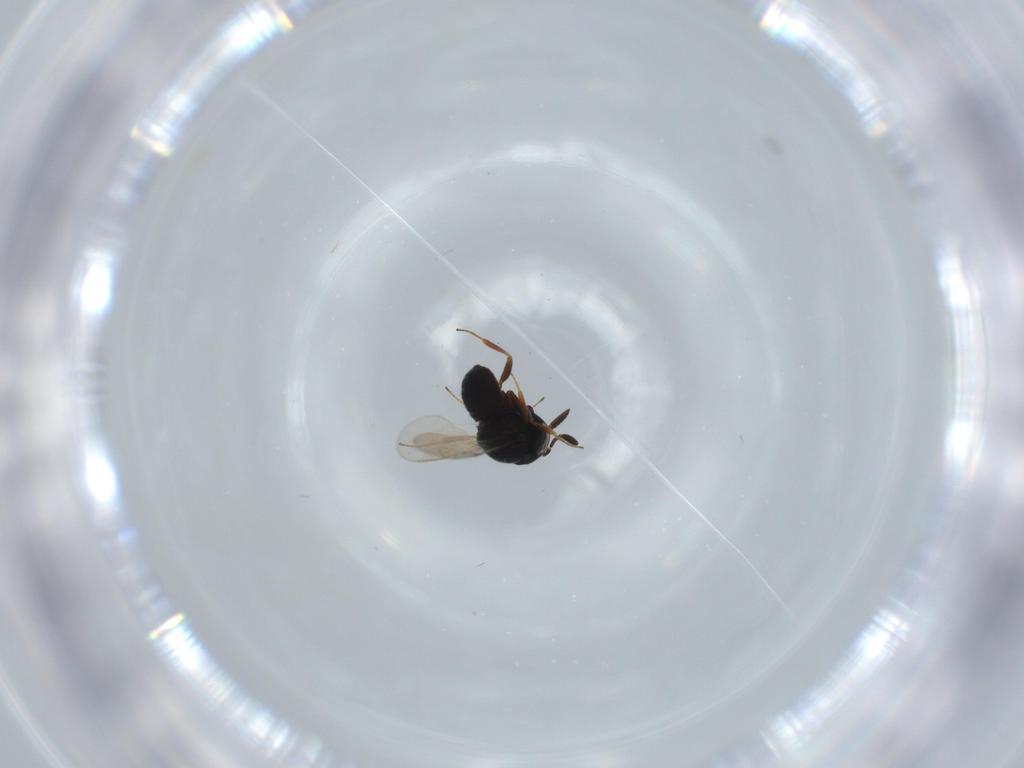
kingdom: Animalia
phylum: Arthropoda
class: Insecta
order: Hymenoptera
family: Scelionidae
